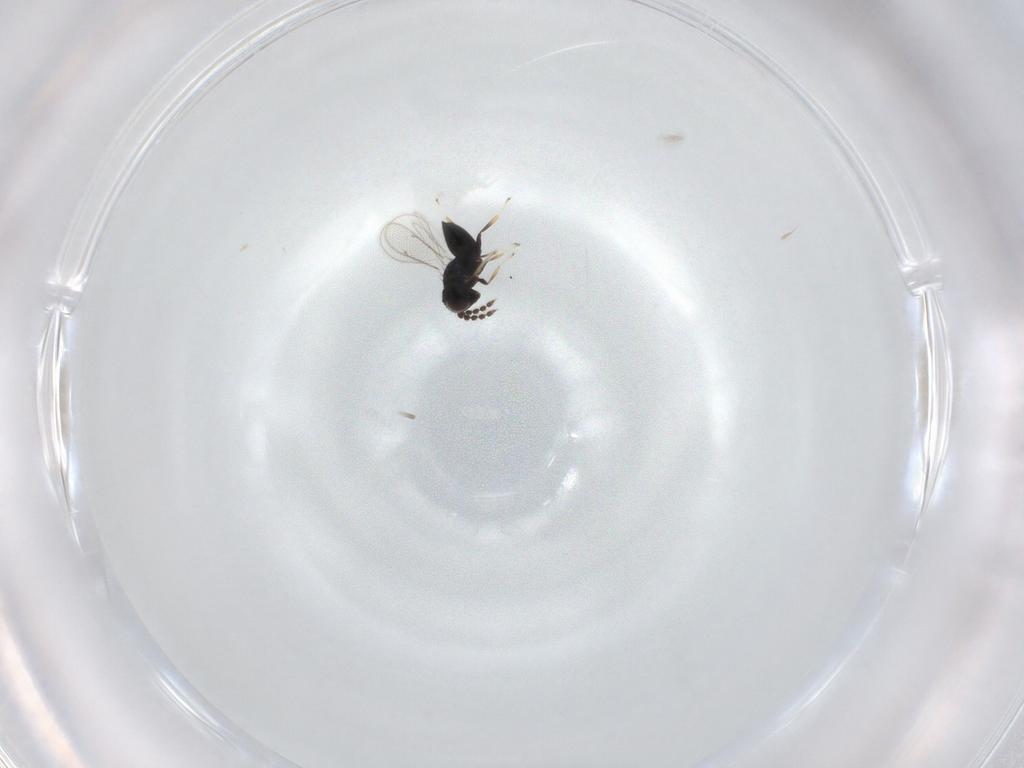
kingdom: Animalia
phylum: Arthropoda
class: Insecta
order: Hymenoptera
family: Eulophidae
